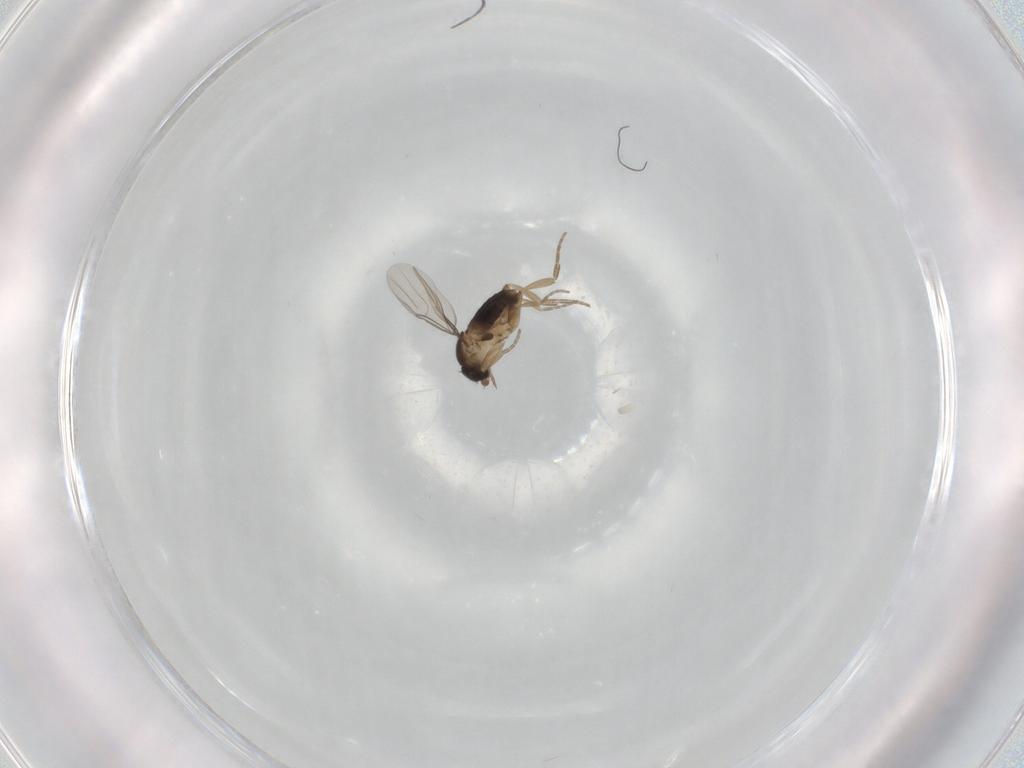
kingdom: Animalia
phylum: Arthropoda
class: Insecta
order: Diptera
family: Phoridae
